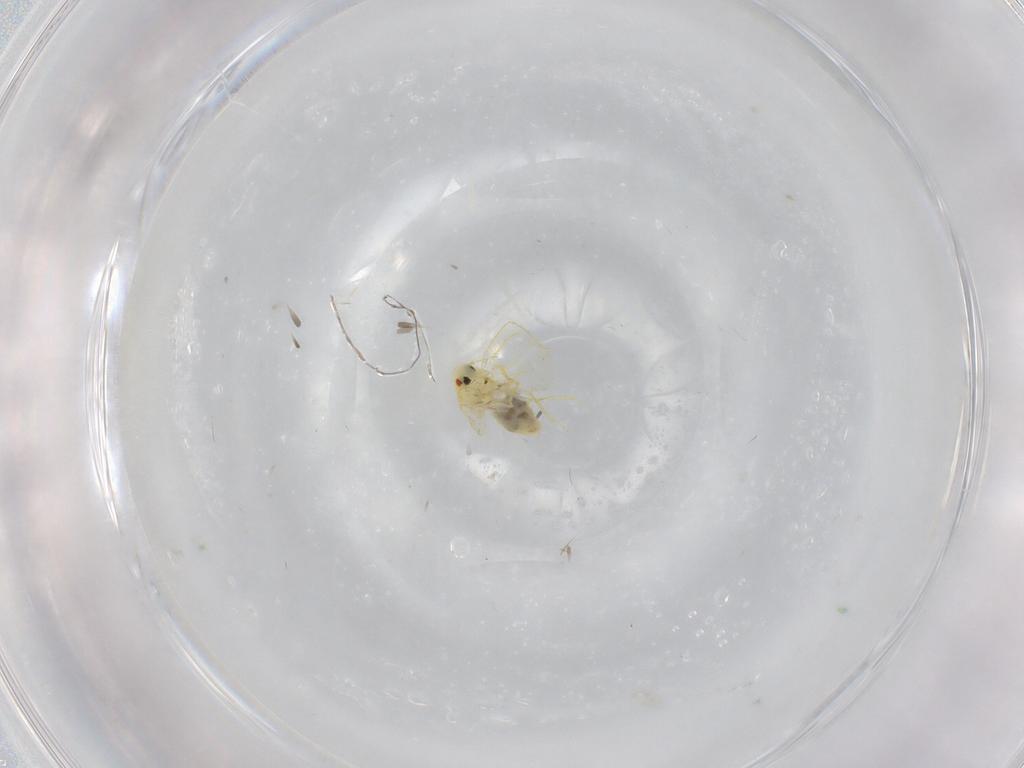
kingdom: Animalia
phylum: Arthropoda
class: Insecta
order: Hemiptera
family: Aleyrodidae
